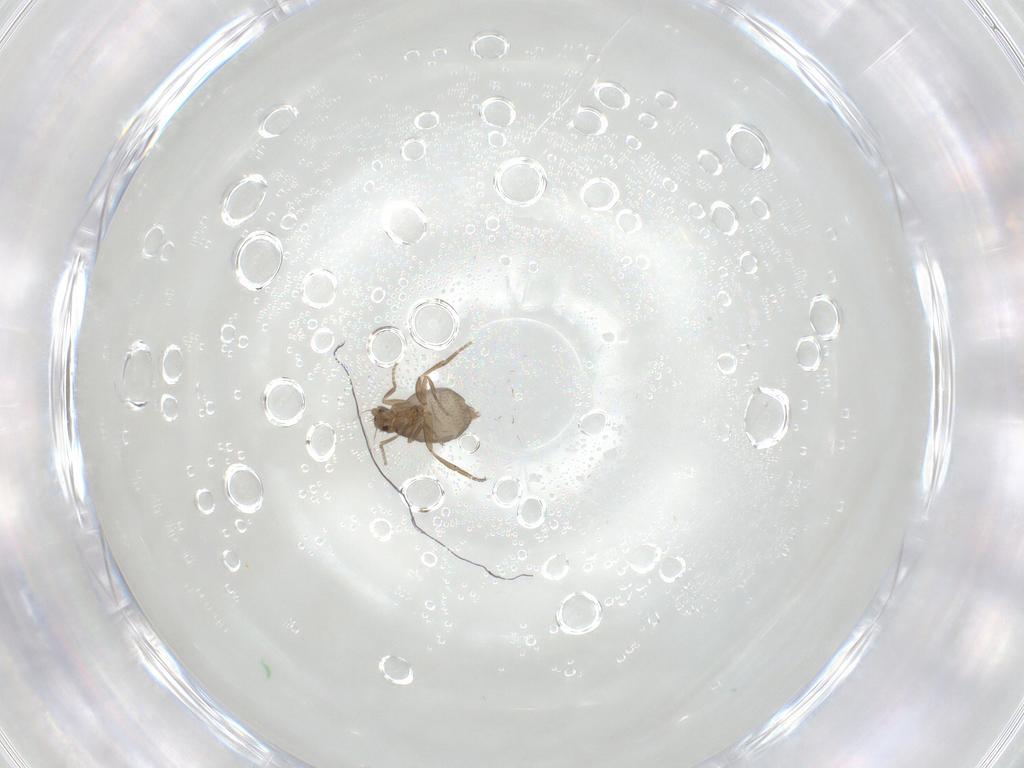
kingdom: Animalia
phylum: Arthropoda
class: Insecta
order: Diptera
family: Phoridae
